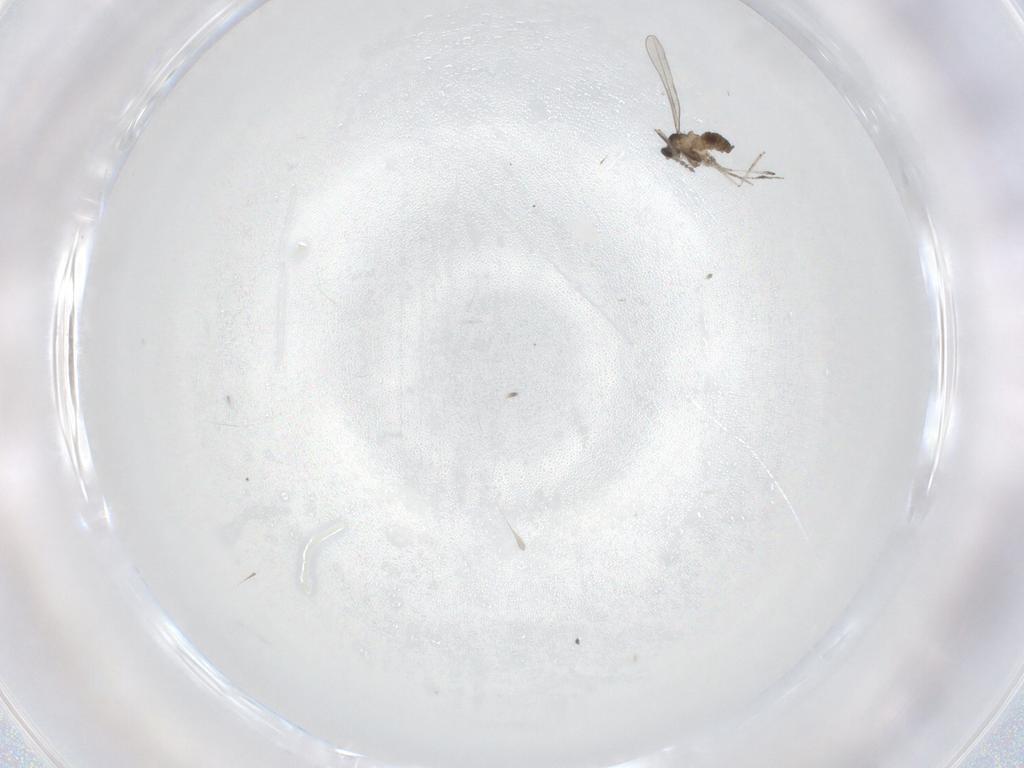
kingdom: Animalia
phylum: Arthropoda
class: Insecta
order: Diptera
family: Cecidomyiidae
